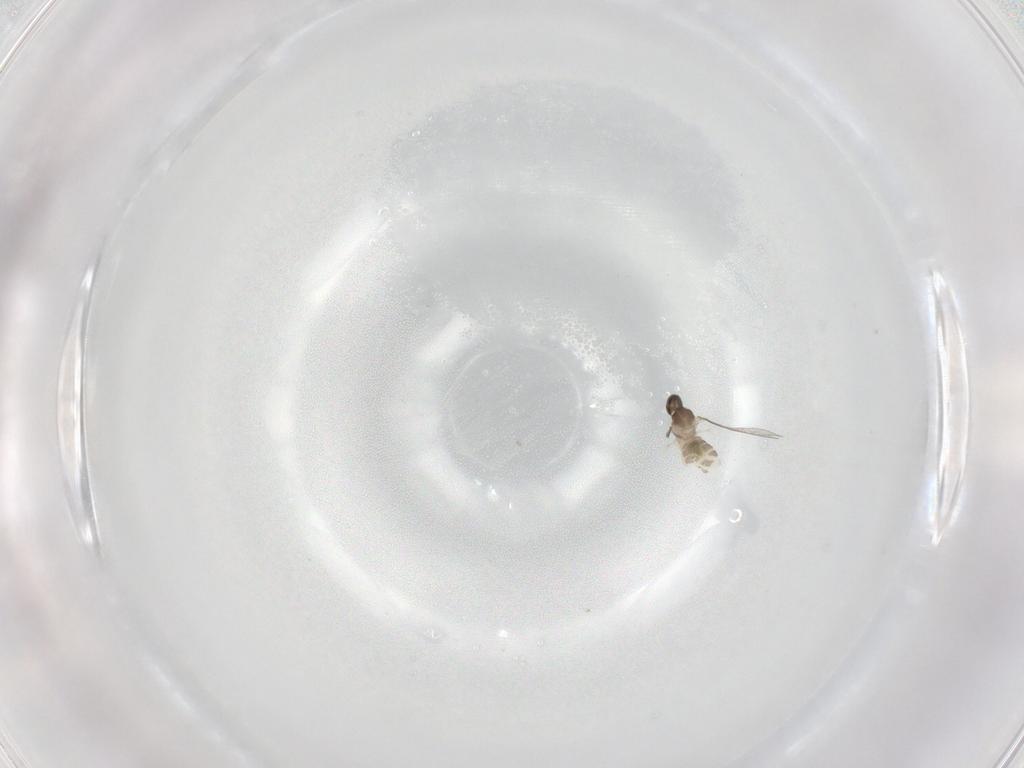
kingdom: Animalia
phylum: Arthropoda
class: Insecta
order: Diptera
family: Cecidomyiidae
